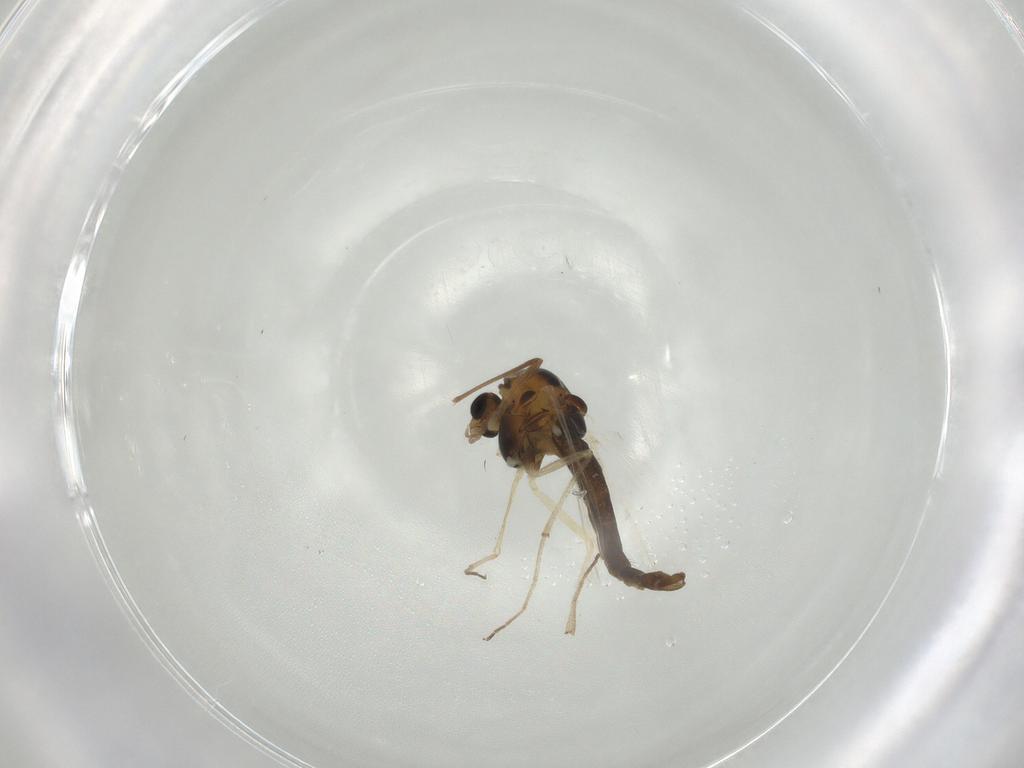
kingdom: Animalia
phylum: Arthropoda
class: Insecta
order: Diptera
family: Chironomidae
